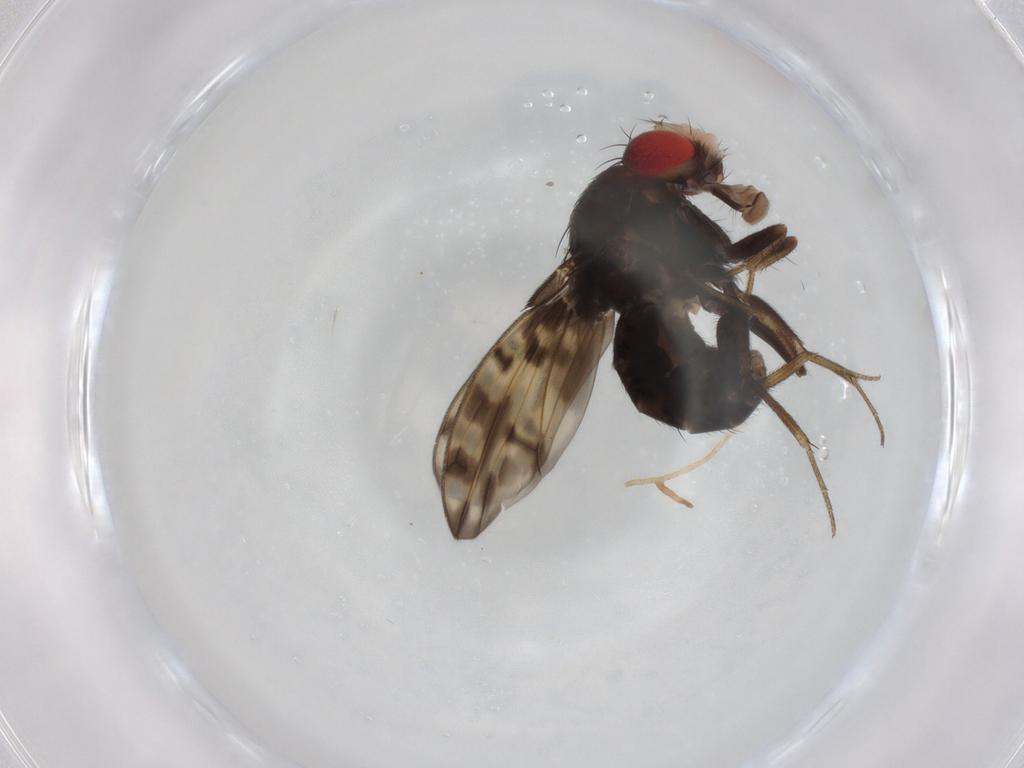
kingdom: Animalia
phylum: Arthropoda
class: Insecta
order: Diptera
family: Drosophilidae
